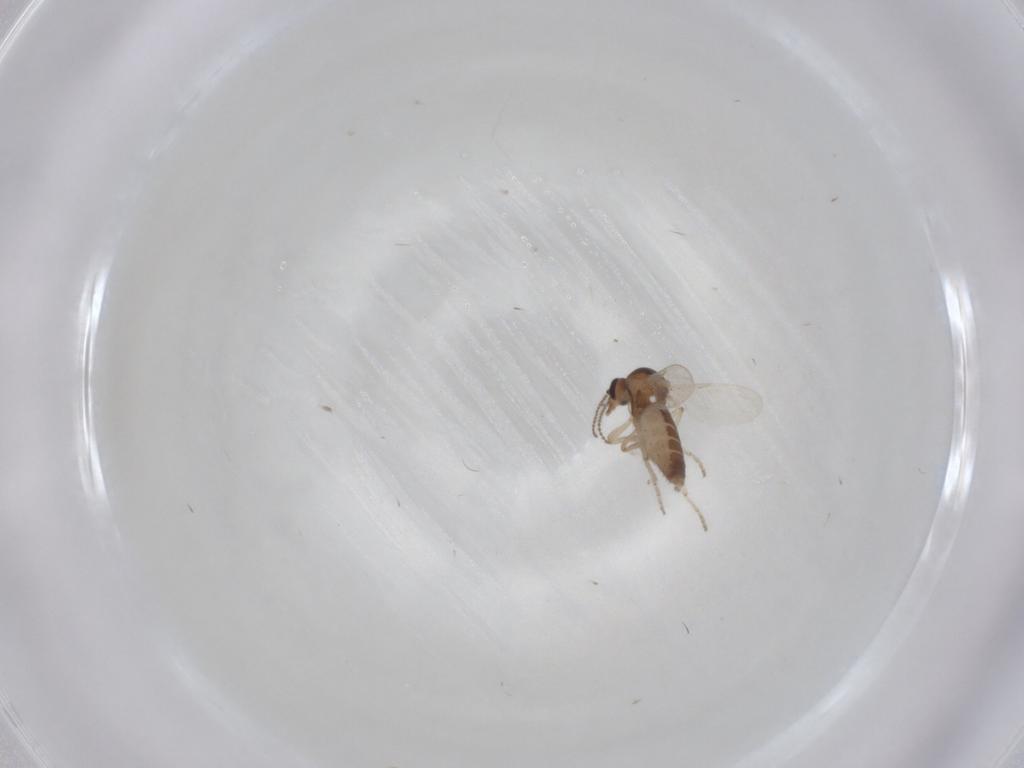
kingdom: Animalia
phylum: Arthropoda
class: Insecta
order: Diptera
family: Ceratopogonidae
